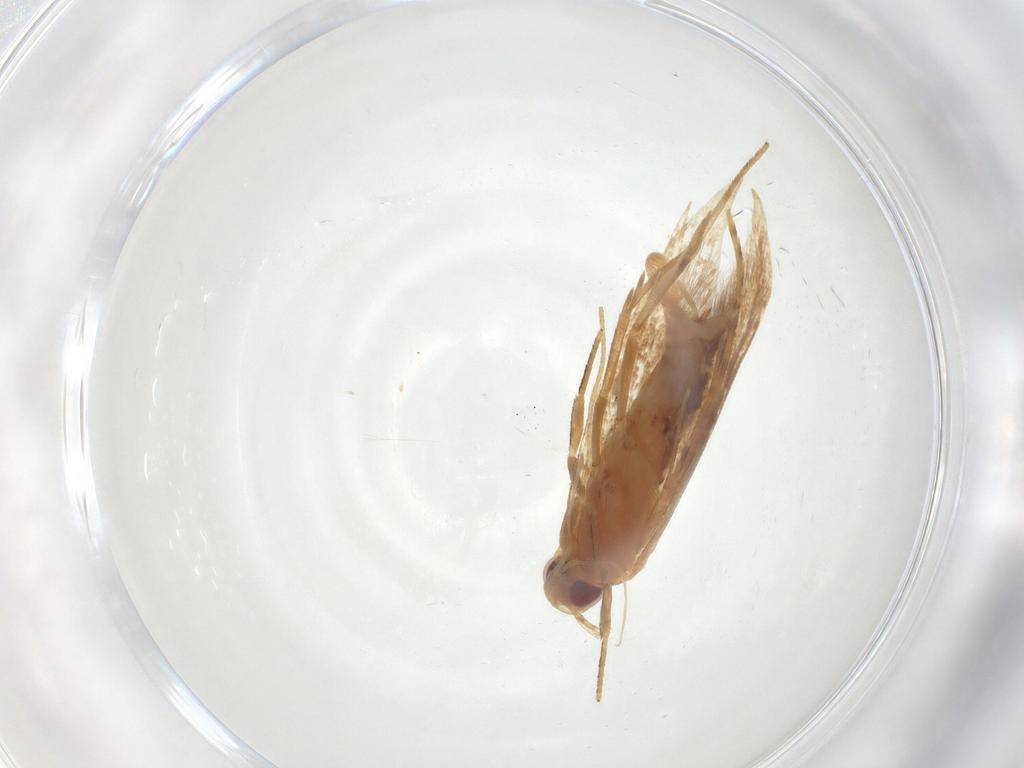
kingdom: Animalia
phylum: Arthropoda
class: Insecta
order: Lepidoptera
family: Cosmopterigidae
